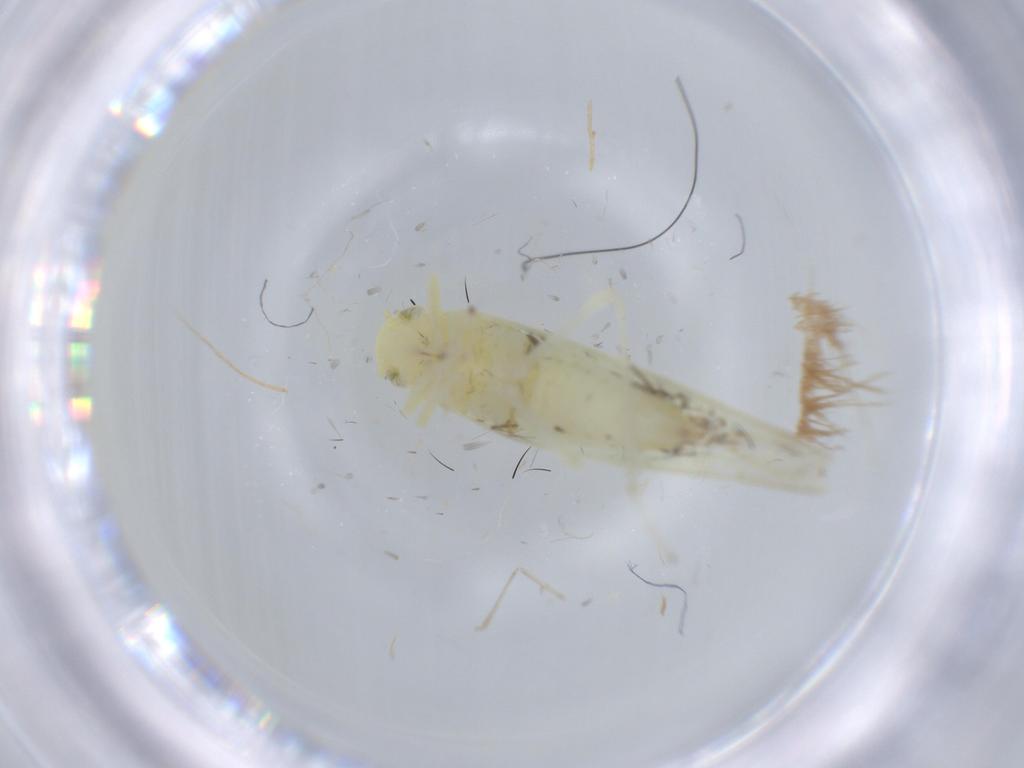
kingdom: Animalia
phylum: Arthropoda
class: Insecta
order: Hemiptera
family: Cicadellidae
